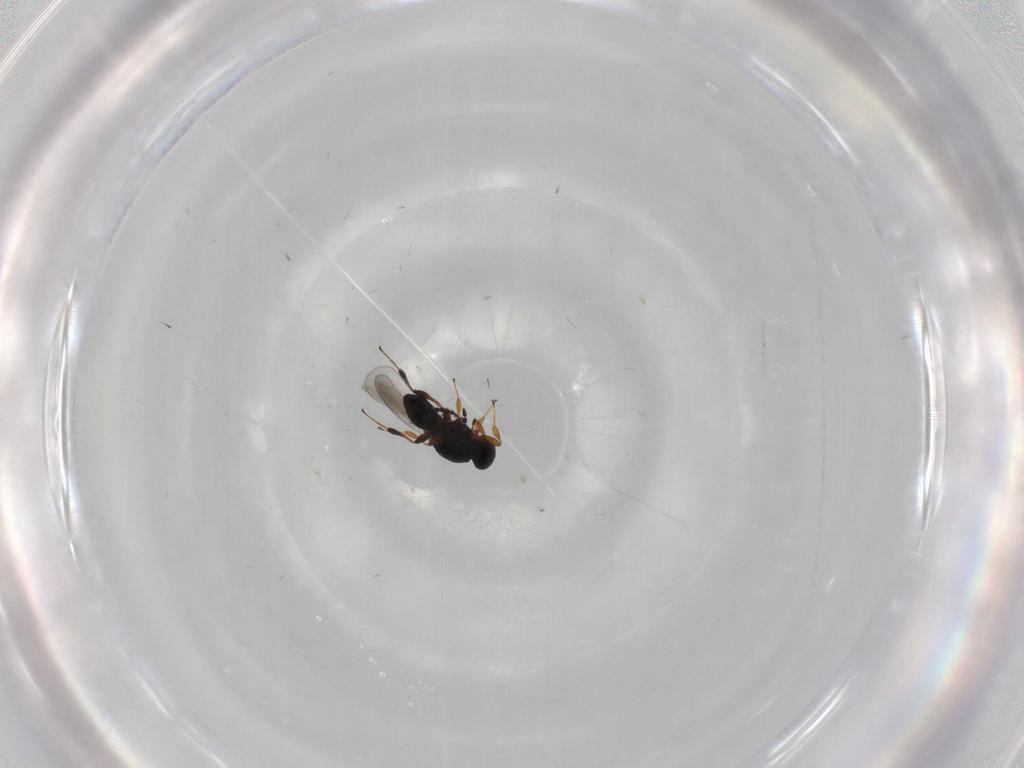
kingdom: Animalia
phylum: Arthropoda
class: Insecta
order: Hymenoptera
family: Platygastridae
